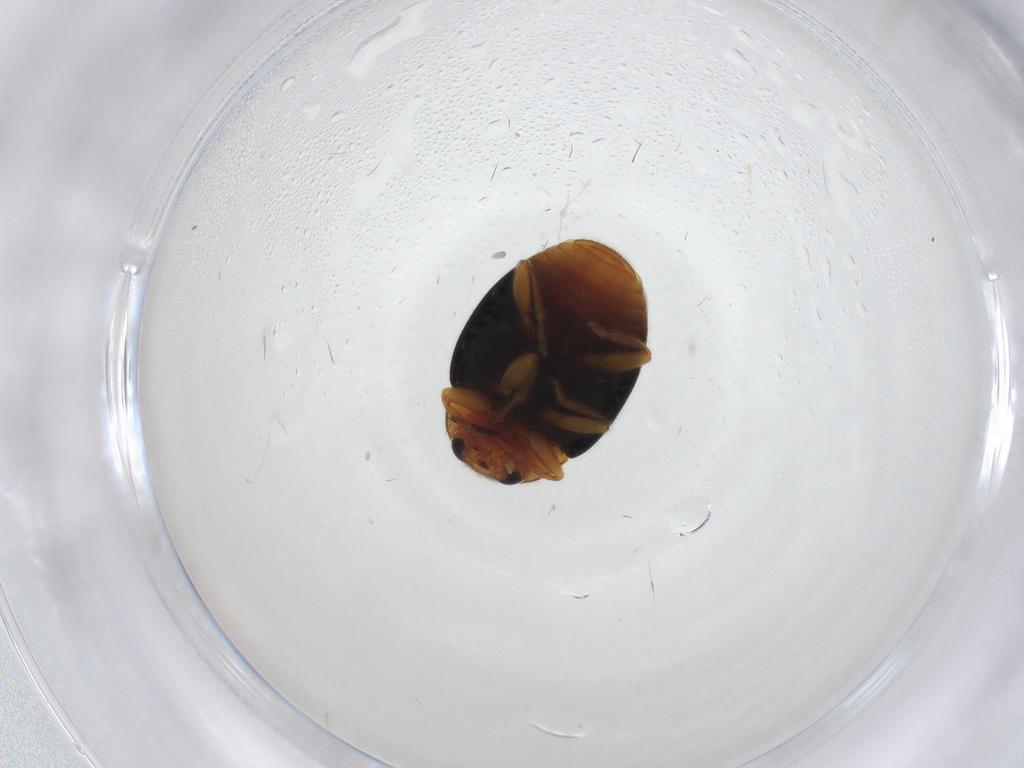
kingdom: Animalia
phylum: Arthropoda
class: Insecta
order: Coleoptera
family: Coccinellidae
